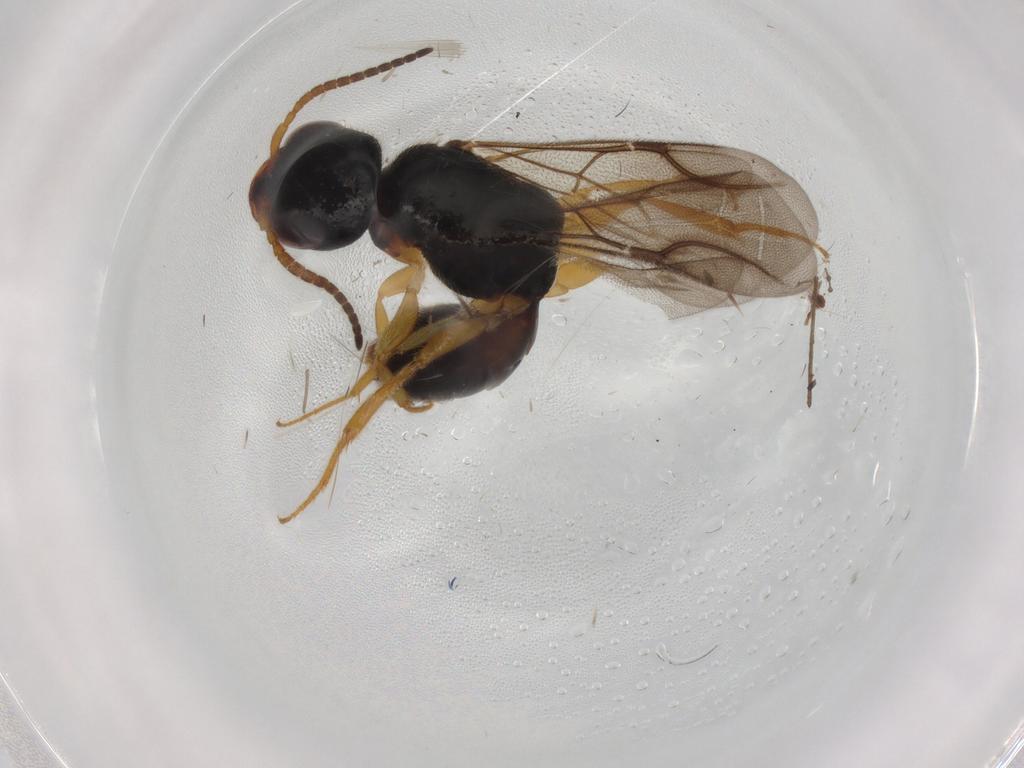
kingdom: Animalia
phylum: Arthropoda
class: Insecta
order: Hymenoptera
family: Bethylidae
